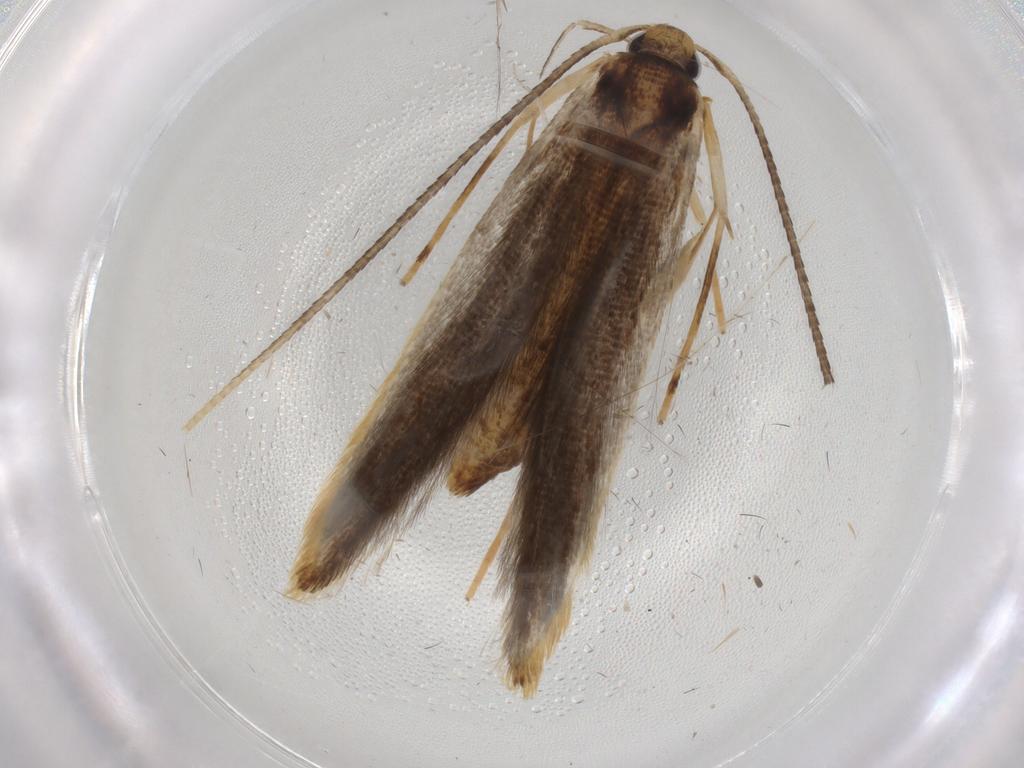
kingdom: Animalia
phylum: Arthropoda
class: Insecta
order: Lepidoptera
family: Pterolonchidae
